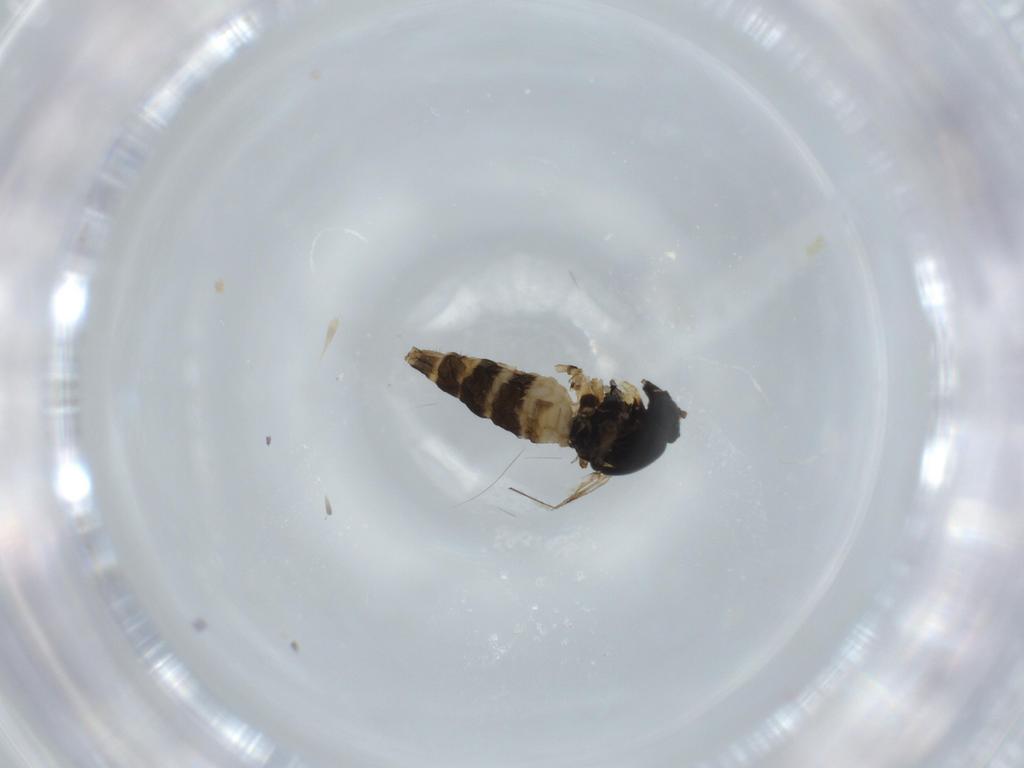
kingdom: Animalia
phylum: Arthropoda
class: Insecta
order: Diptera
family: Sciaridae
